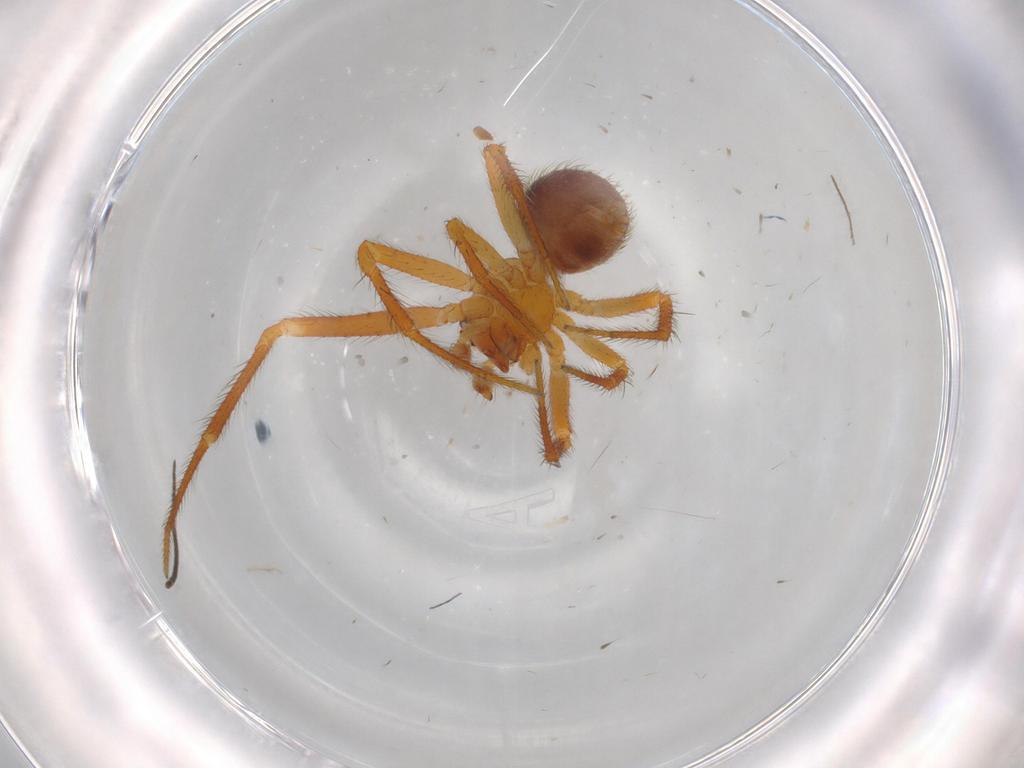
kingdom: Animalia
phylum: Arthropoda
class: Arachnida
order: Araneae
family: Theridiidae
